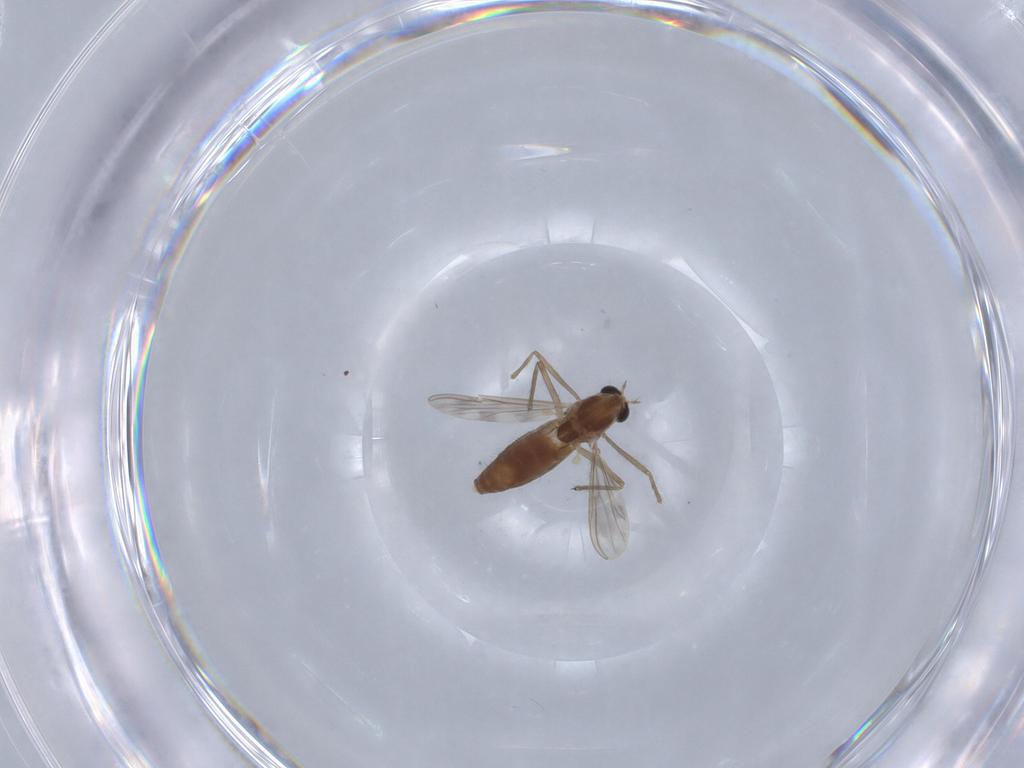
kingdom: Animalia
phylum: Arthropoda
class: Insecta
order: Diptera
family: Chironomidae
